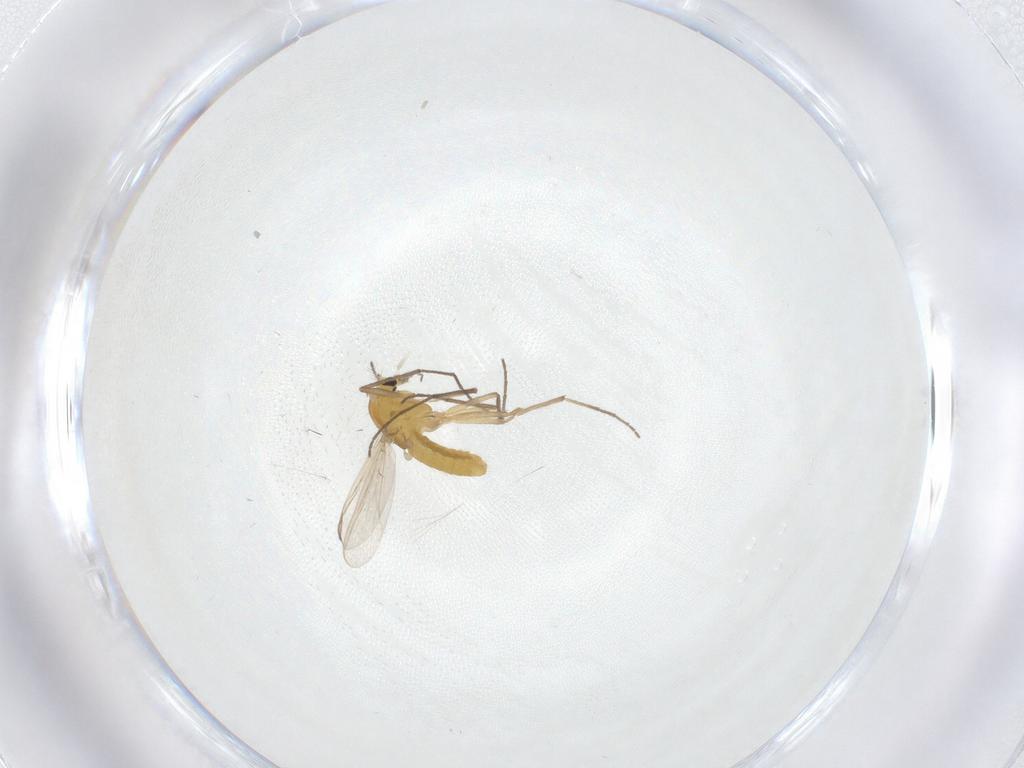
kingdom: Animalia
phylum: Arthropoda
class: Insecta
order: Diptera
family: Chironomidae
